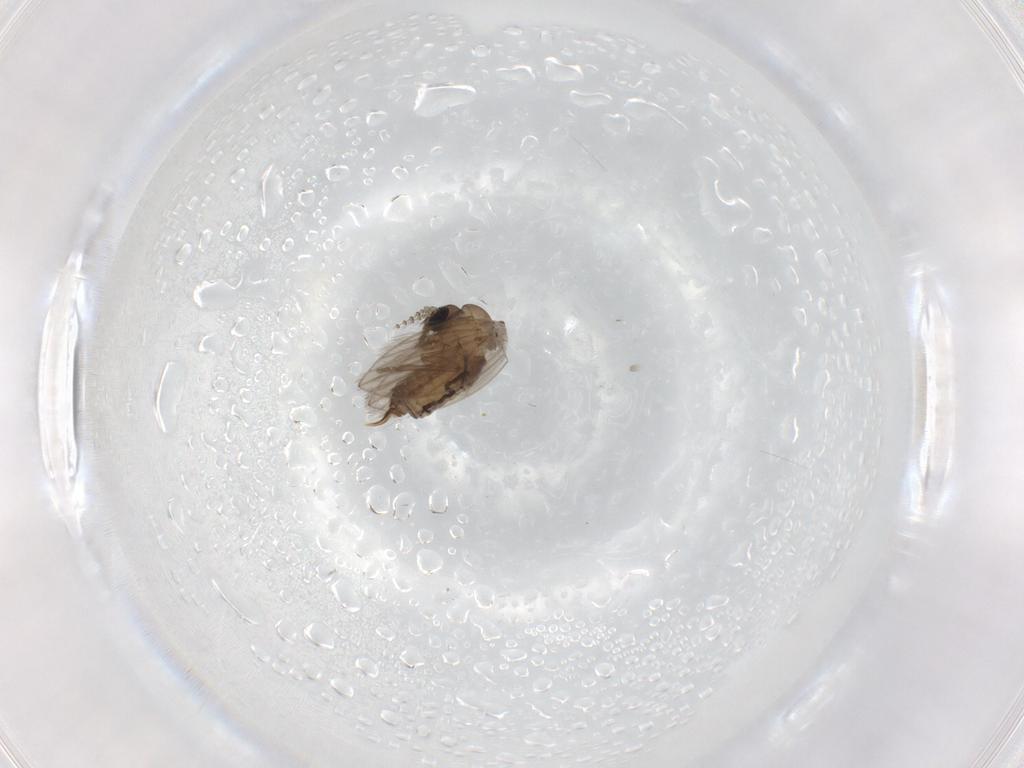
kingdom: Animalia
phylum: Arthropoda
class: Insecta
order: Diptera
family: Psychodidae
